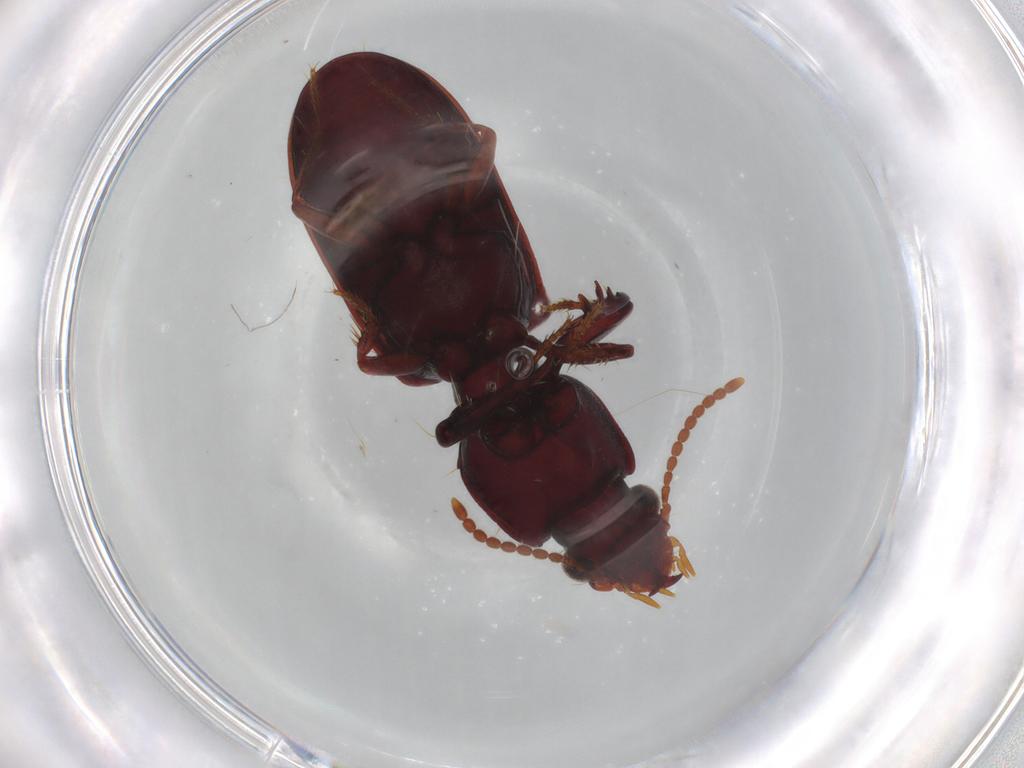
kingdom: Animalia
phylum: Arthropoda
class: Insecta
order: Coleoptera
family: Carabidae
